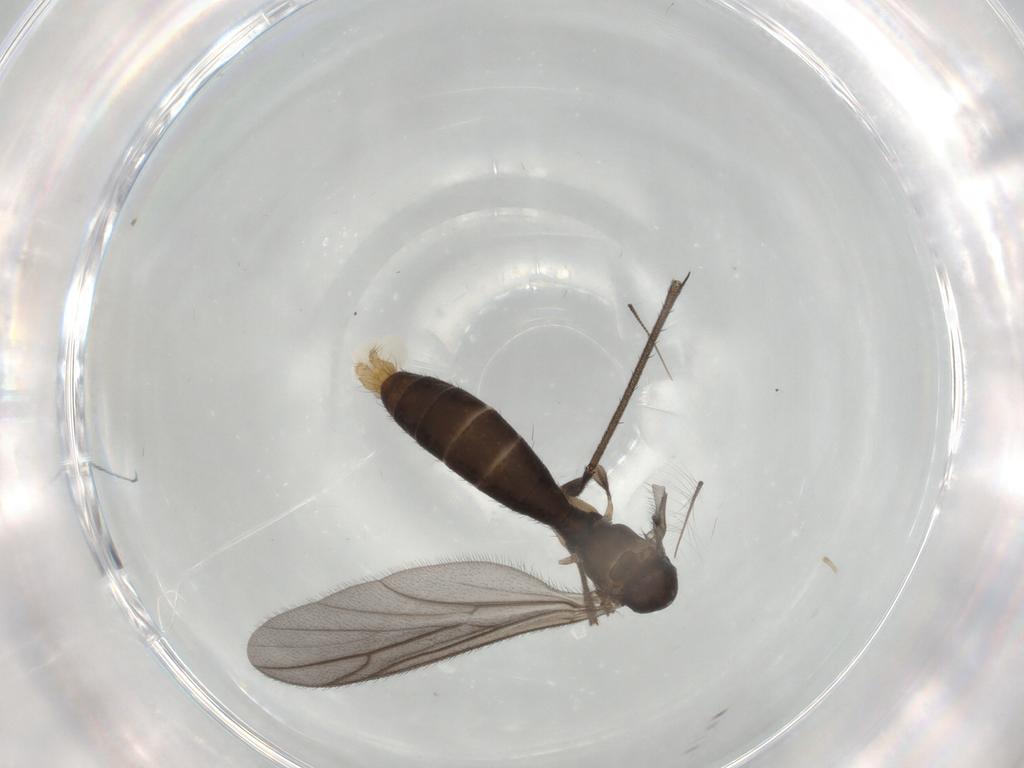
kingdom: Animalia
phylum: Arthropoda
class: Insecta
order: Diptera
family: Ditomyiidae
